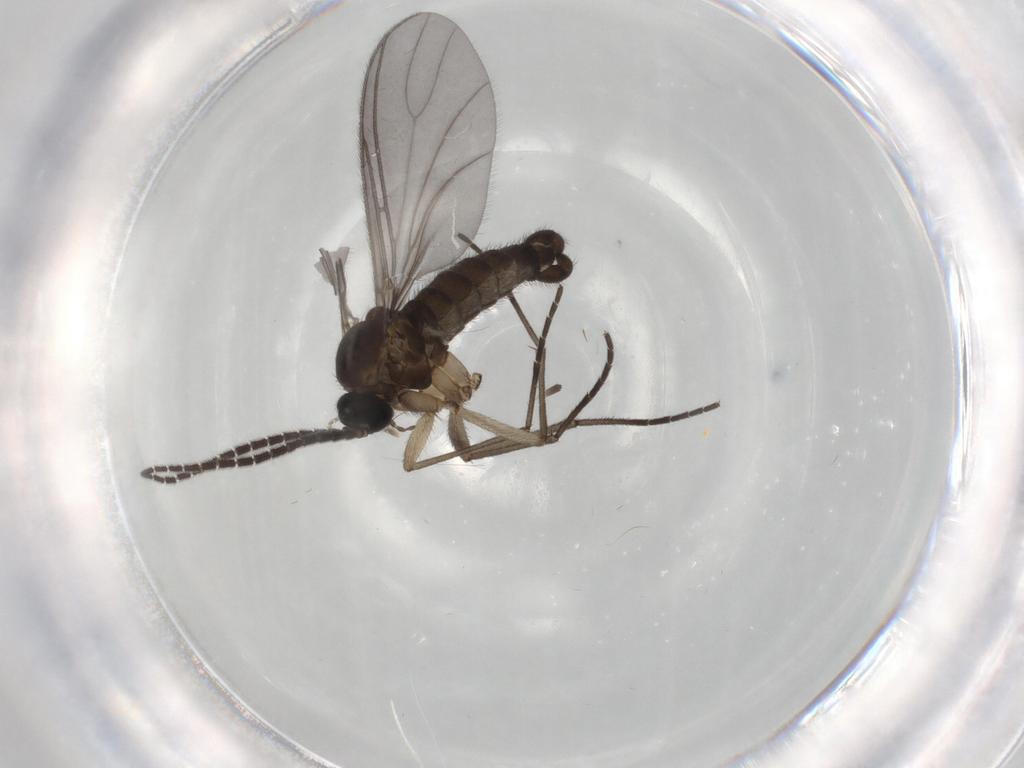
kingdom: Animalia
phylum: Arthropoda
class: Insecta
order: Diptera
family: Sciaridae
